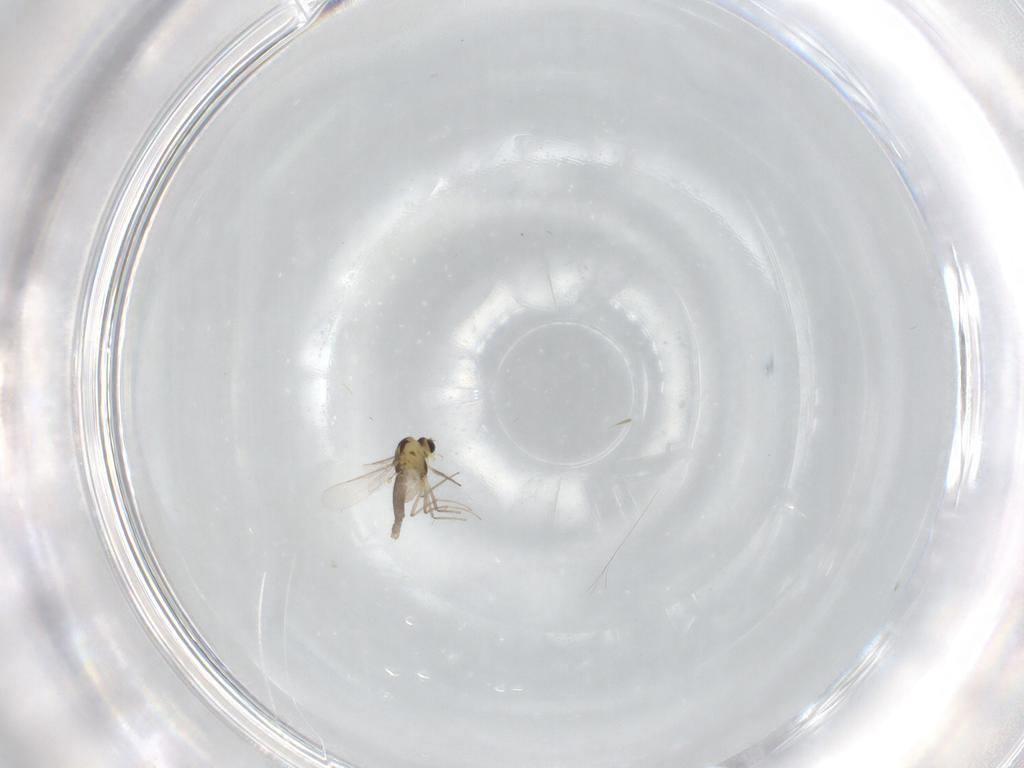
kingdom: Animalia
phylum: Arthropoda
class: Insecta
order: Diptera
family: Chironomidae
